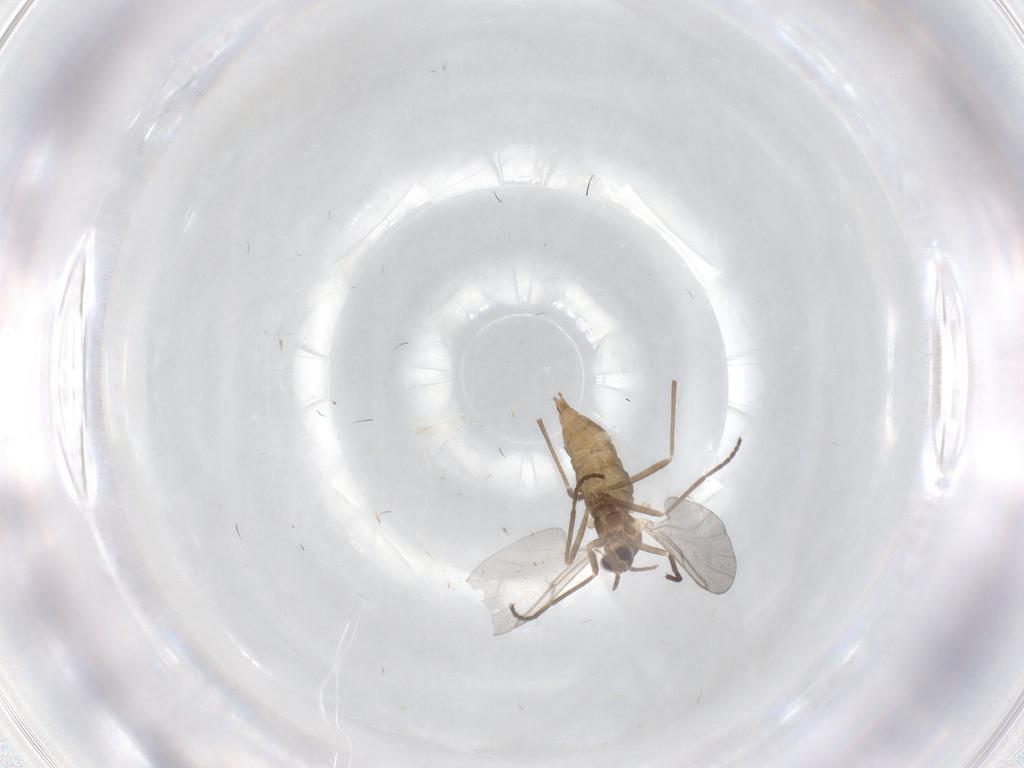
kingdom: Animalia
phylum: Arthropoda
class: Insecta
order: Diptera
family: Cecidomyiidae
